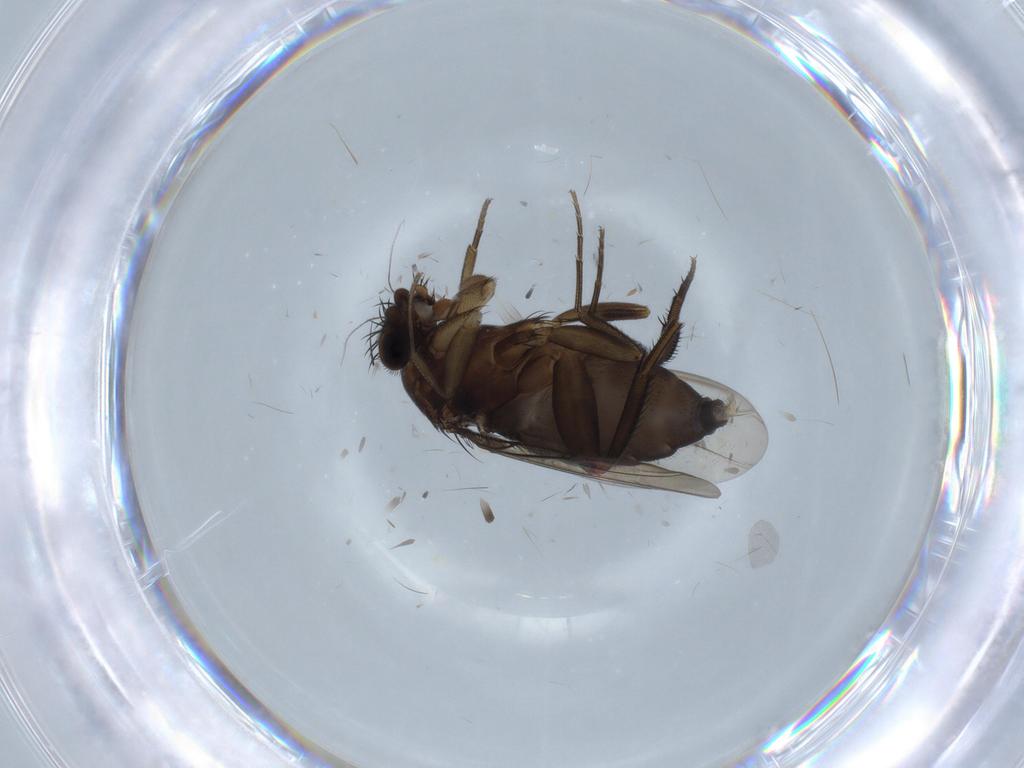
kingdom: Animalia
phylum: Arthropoda
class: Insecta
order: Diptera
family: Phoridae
